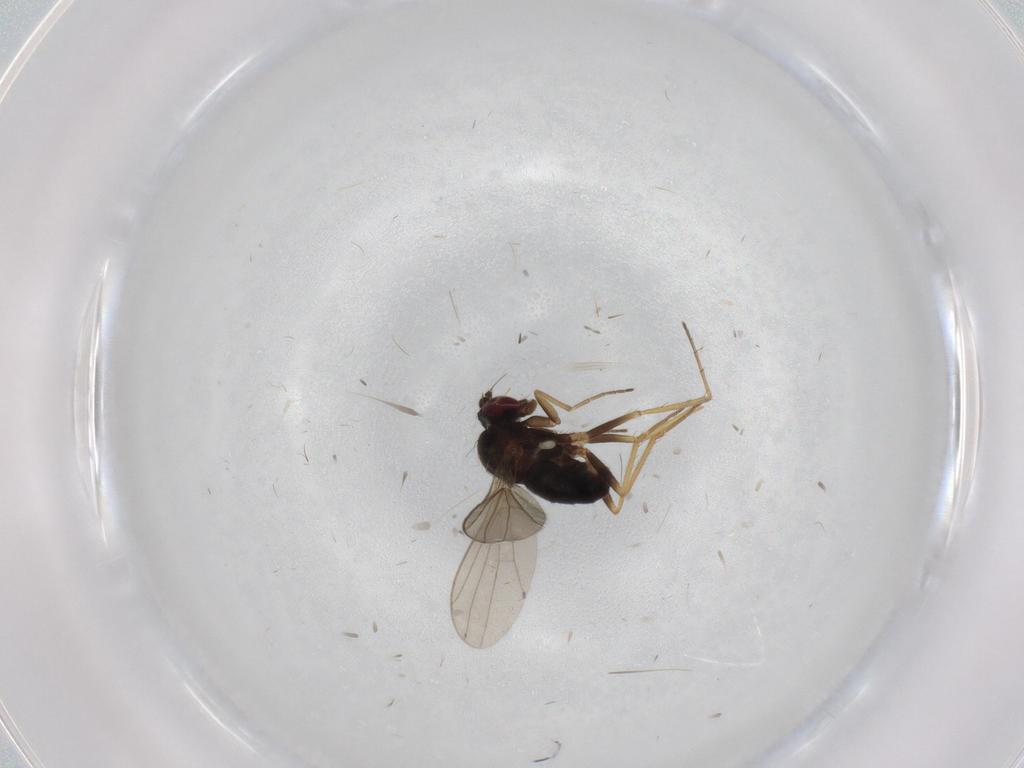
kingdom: Animalia
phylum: Arthropoda
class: Insecta
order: Diptera
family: Cecidomyiidae
